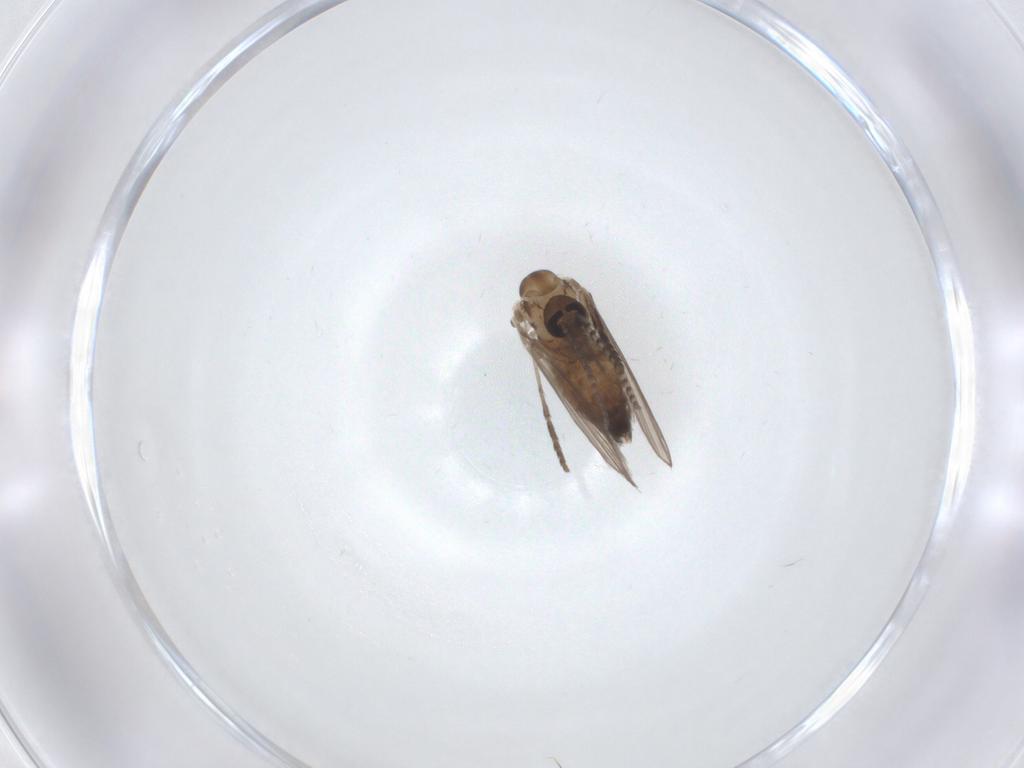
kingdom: Animalia
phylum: Arthropoda
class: Insecta
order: Diptera
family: Psychodidae
